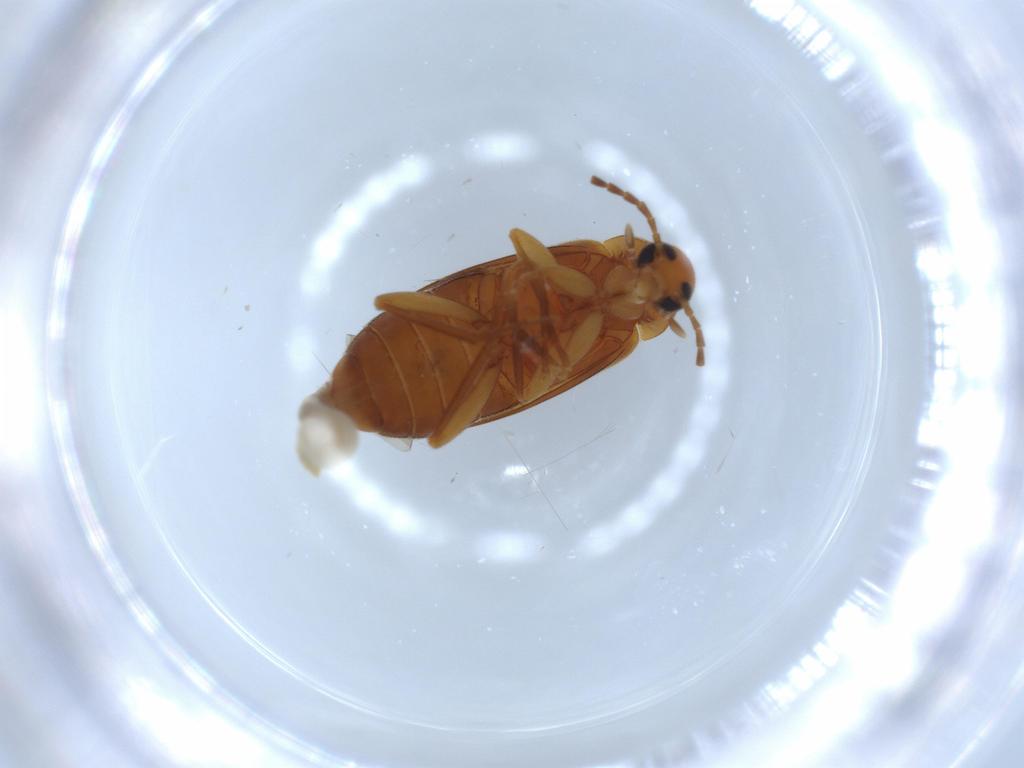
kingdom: Animalia
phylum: Arthropoda
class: Insecta
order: Coleoptera
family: Scraptiidae
